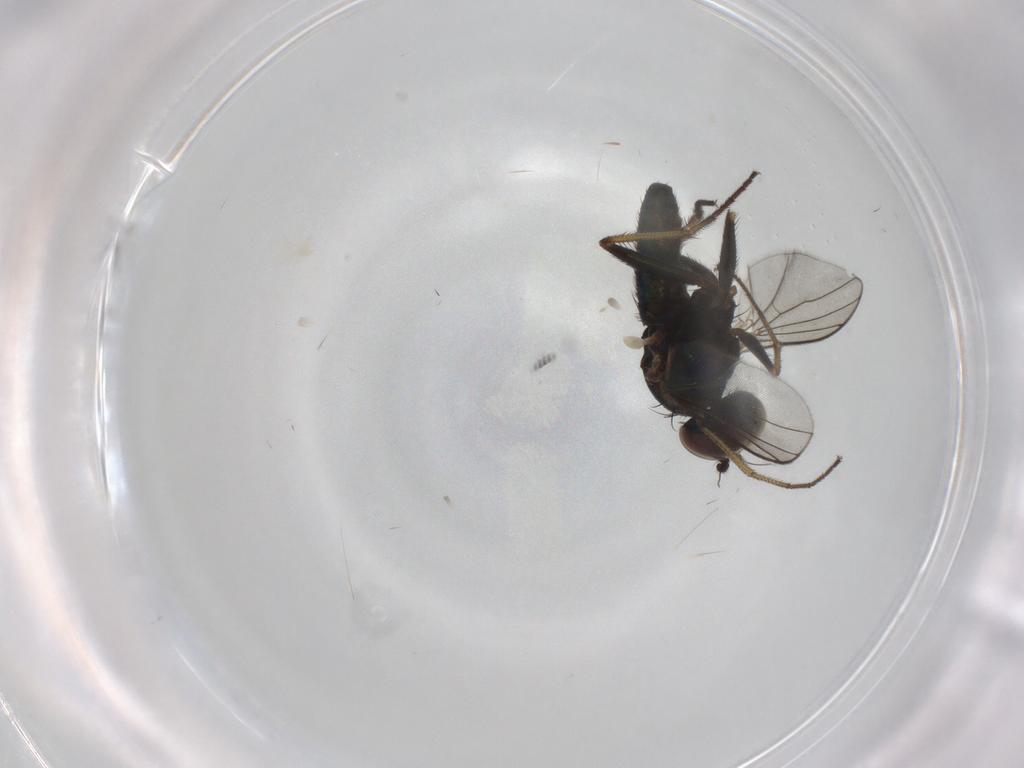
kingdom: Animalia
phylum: Arthropoda
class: Insecta
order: Diptera
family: Dolichopodidae
